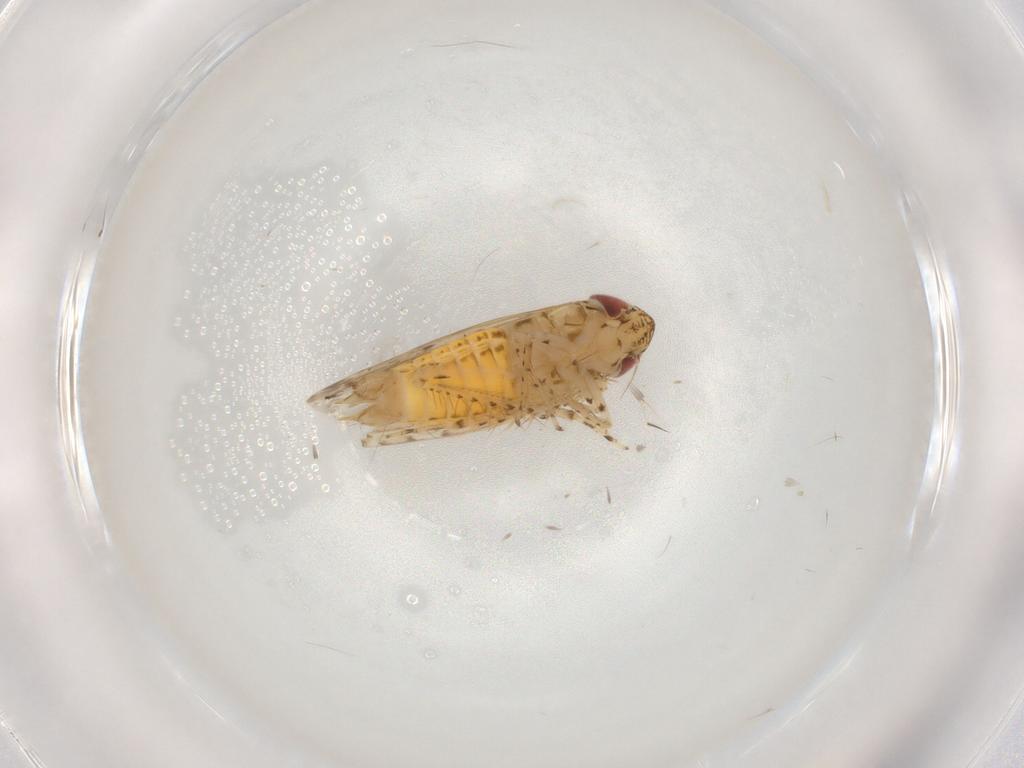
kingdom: Animalia
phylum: Arthropoda
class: Insecta
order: Hemiptera
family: Cicadellidae
